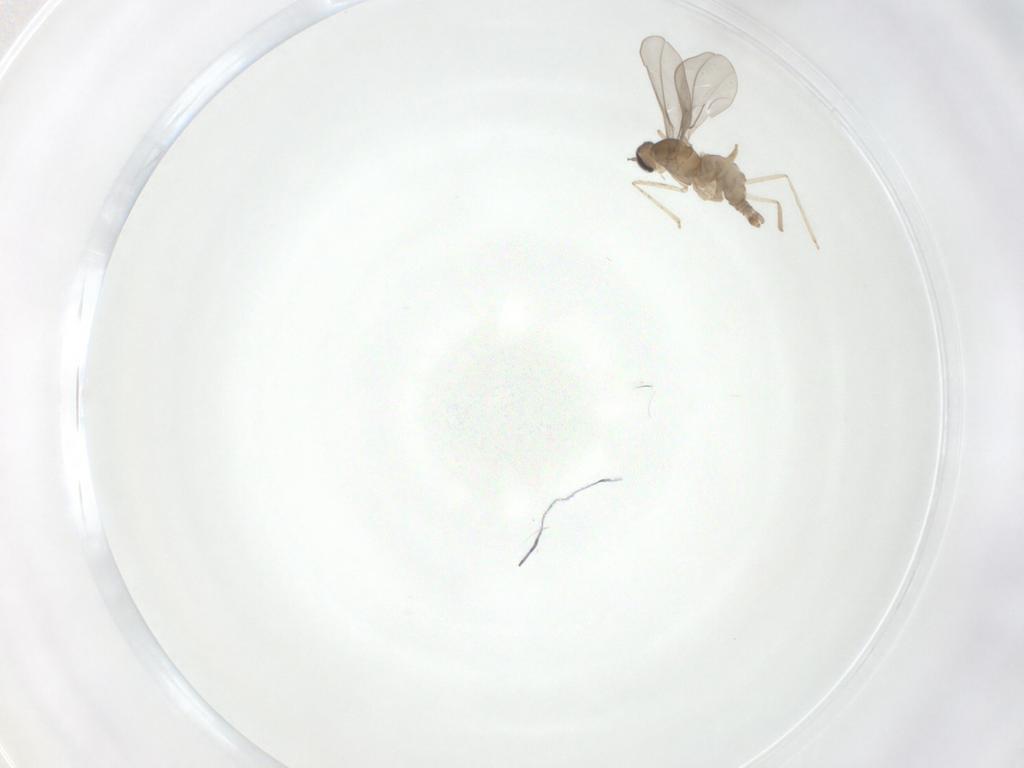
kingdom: Animalia
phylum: Arthropoda
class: Insecta
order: Diptera
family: Cecidomyiidae
